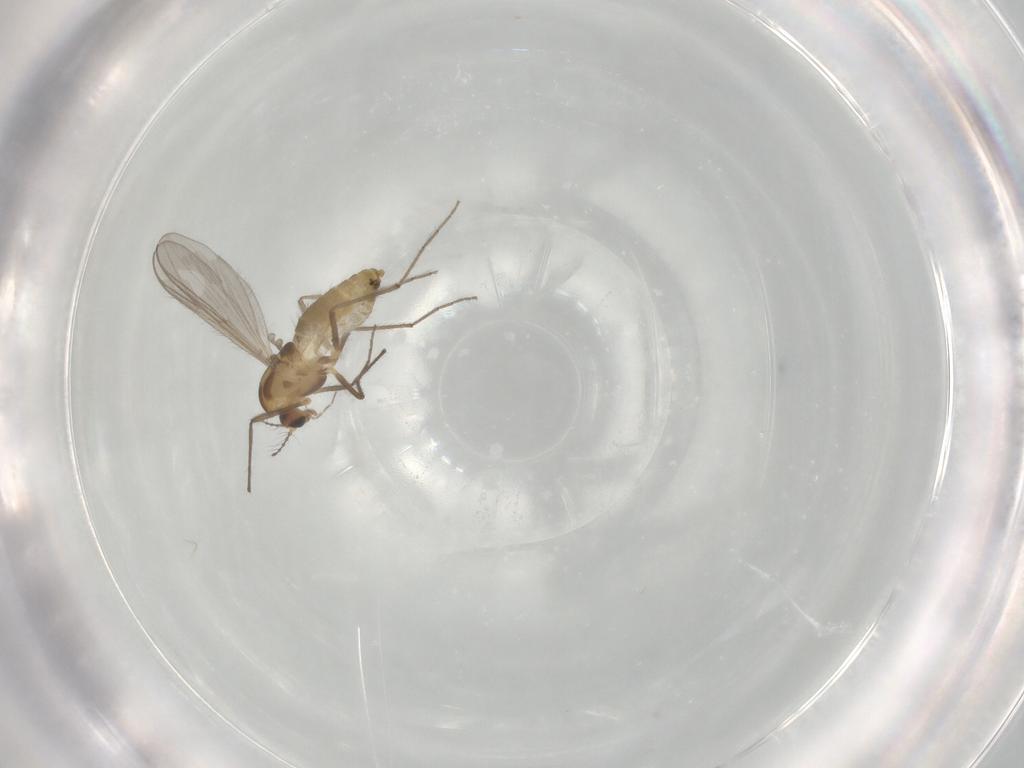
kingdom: Animalia
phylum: Arthropoda
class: Insecta
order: Diptera
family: Chironomidae
